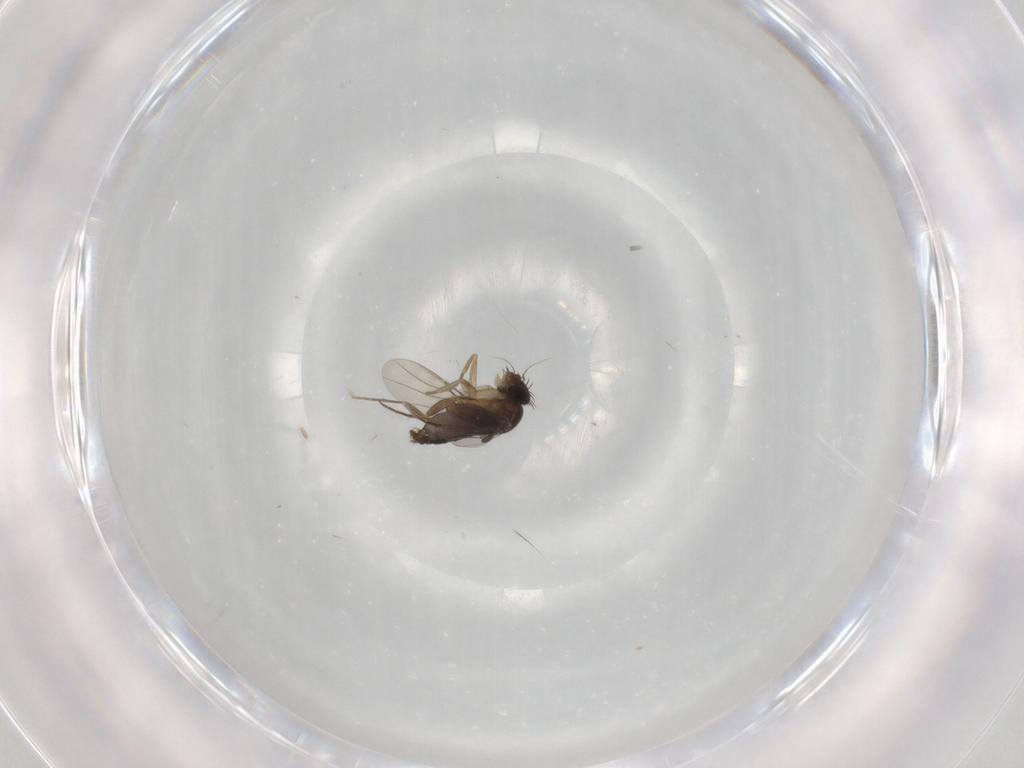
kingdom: Animalia
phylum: Arthropoda
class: Insecta
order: Diptera
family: Phoridae
